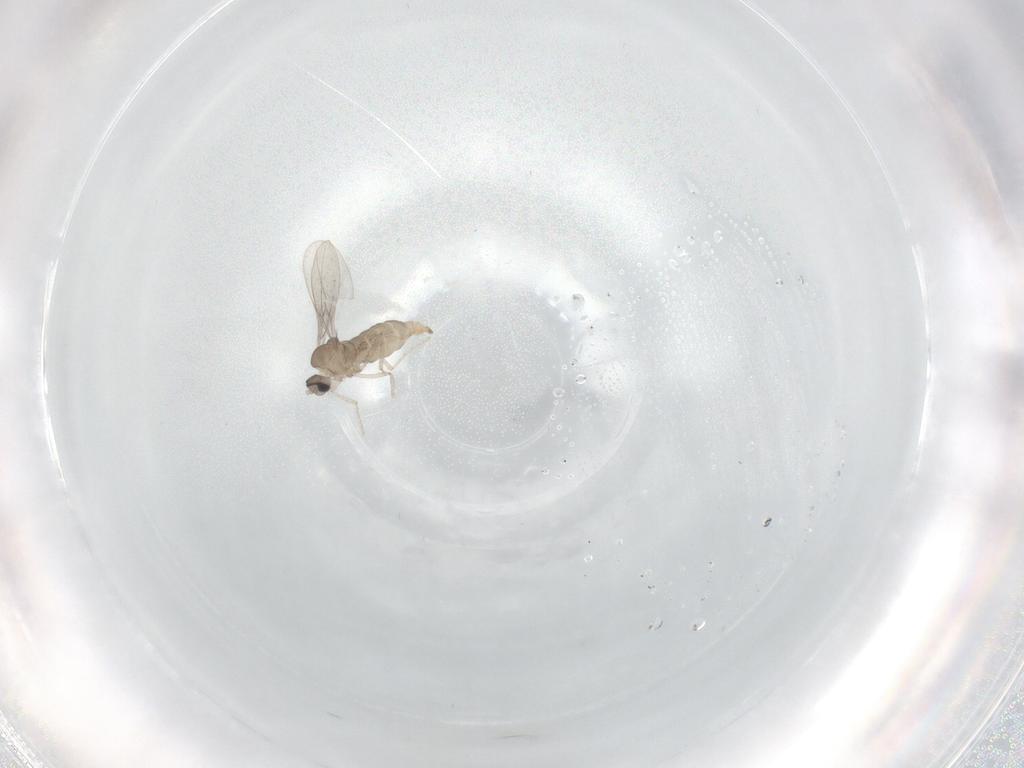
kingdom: Animalia
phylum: Arthropoda
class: Insecta
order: Diptera
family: Cecidomyiidae
